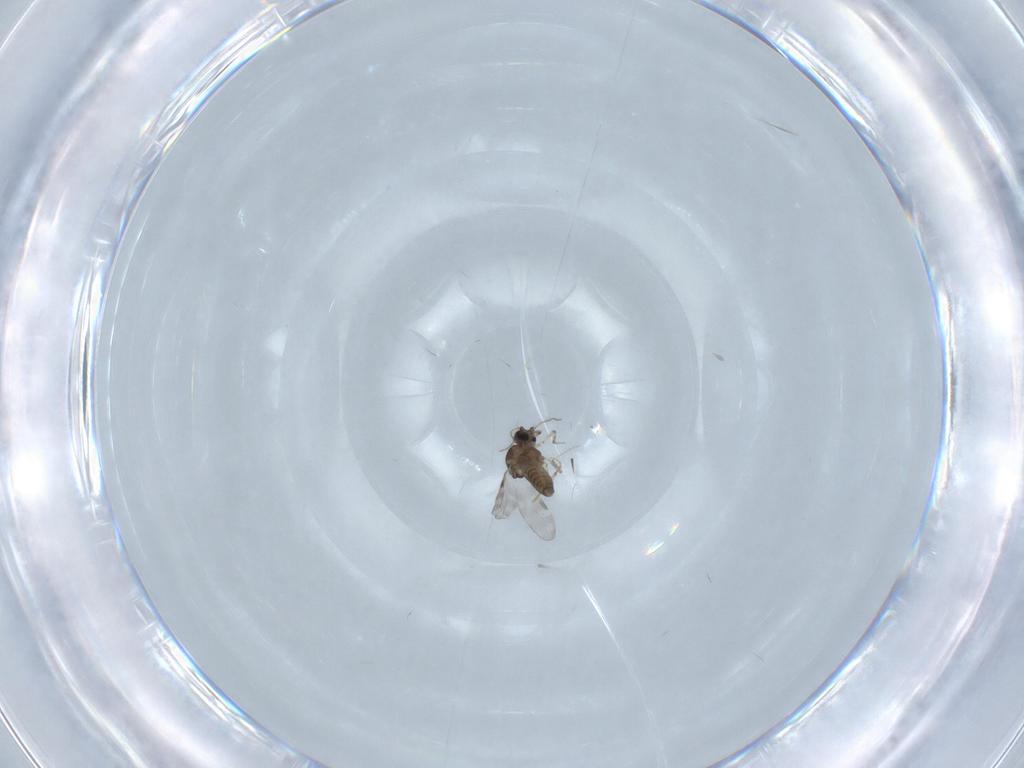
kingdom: Animalia
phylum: Arthropoda
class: Insecta
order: Diptera
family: Ceratopogonidae
